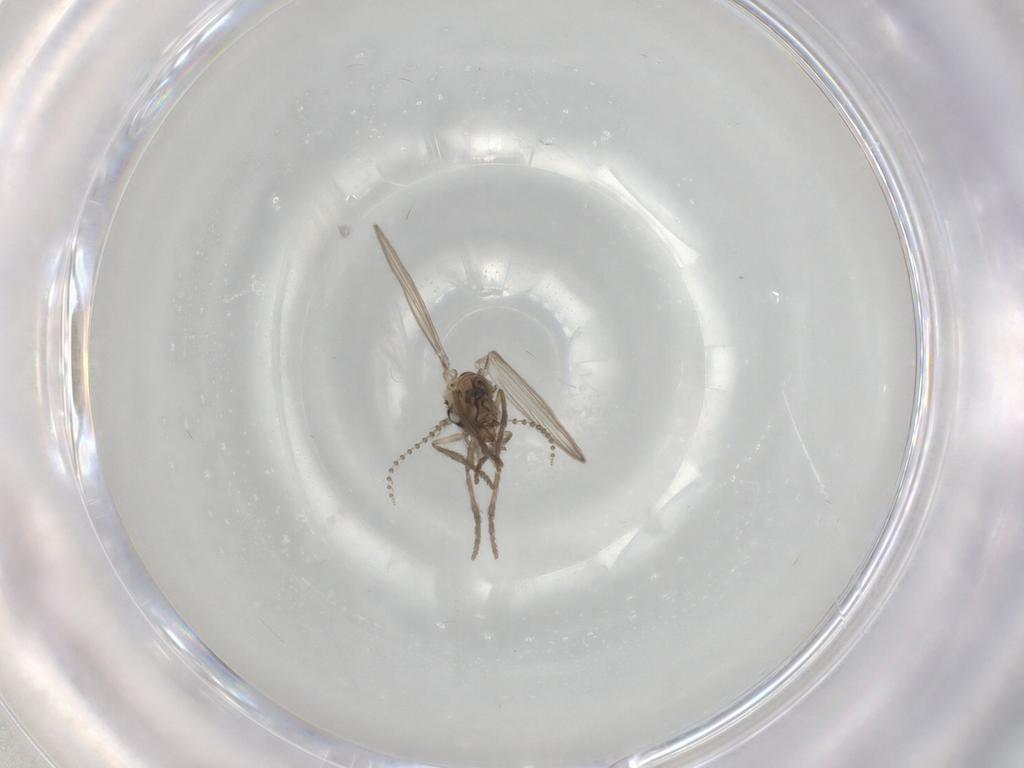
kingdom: Animalia
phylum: Arthropoda
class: Insecta
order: Diptera
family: Psychodidae
